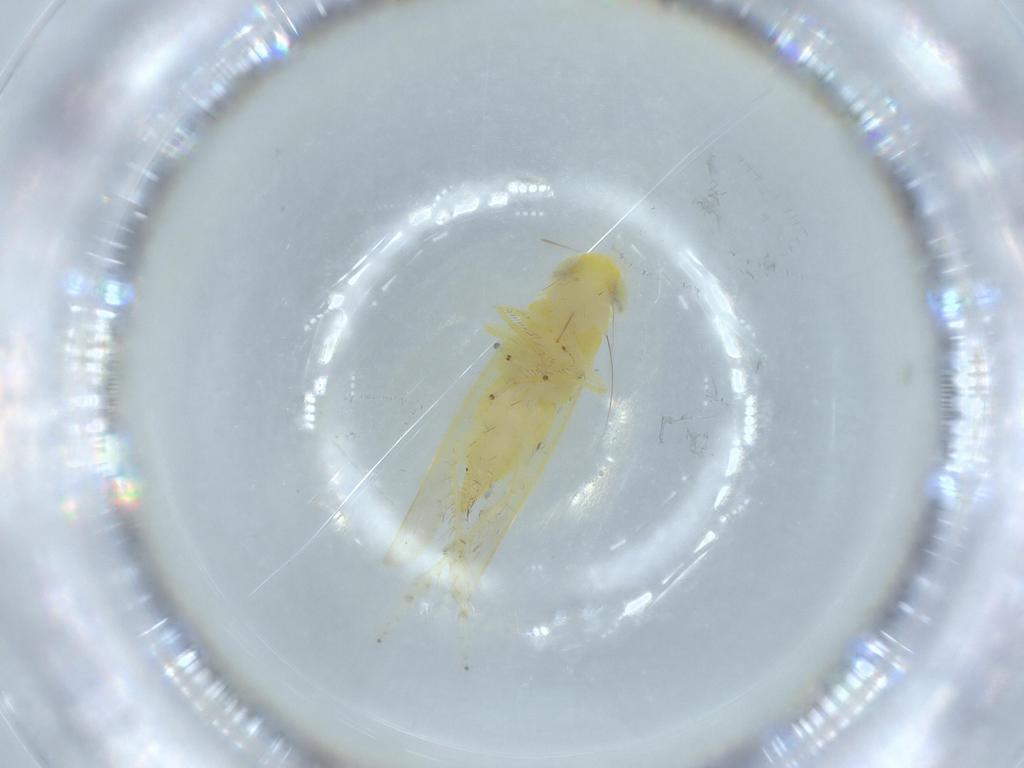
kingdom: Animalia
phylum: Arthropoda
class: Insecta
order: Hemiptera
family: Cicadellidae
